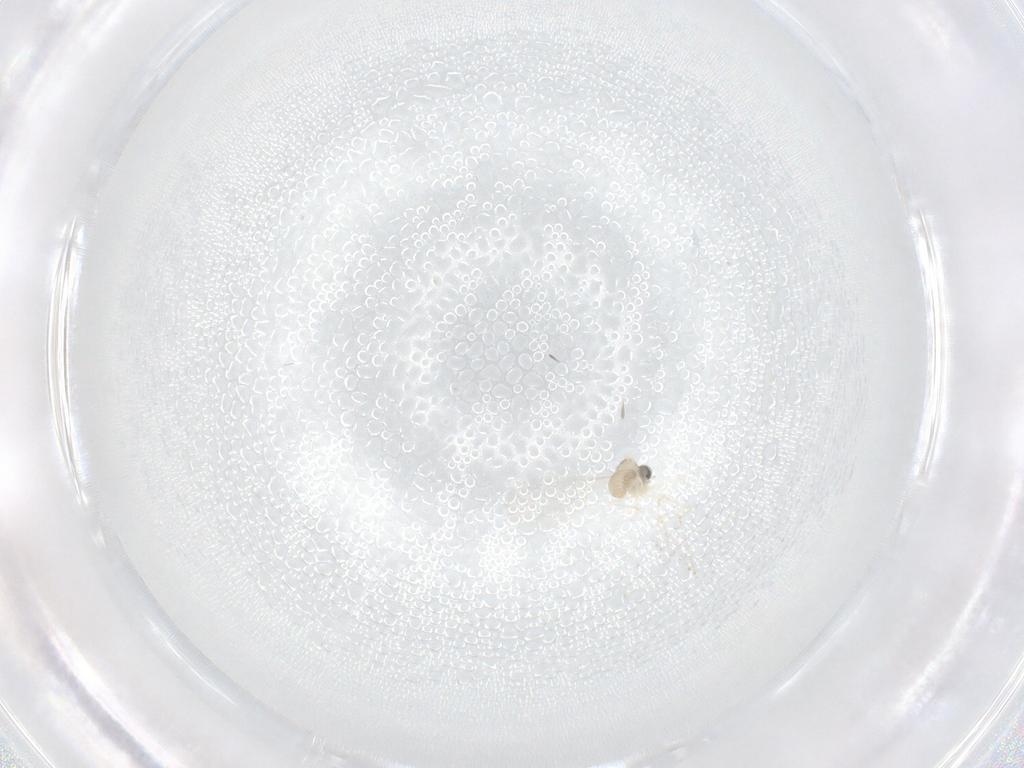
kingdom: Animalia
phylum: Arthropoda
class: Insecta
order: Diptera
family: Cecidomyiidae
